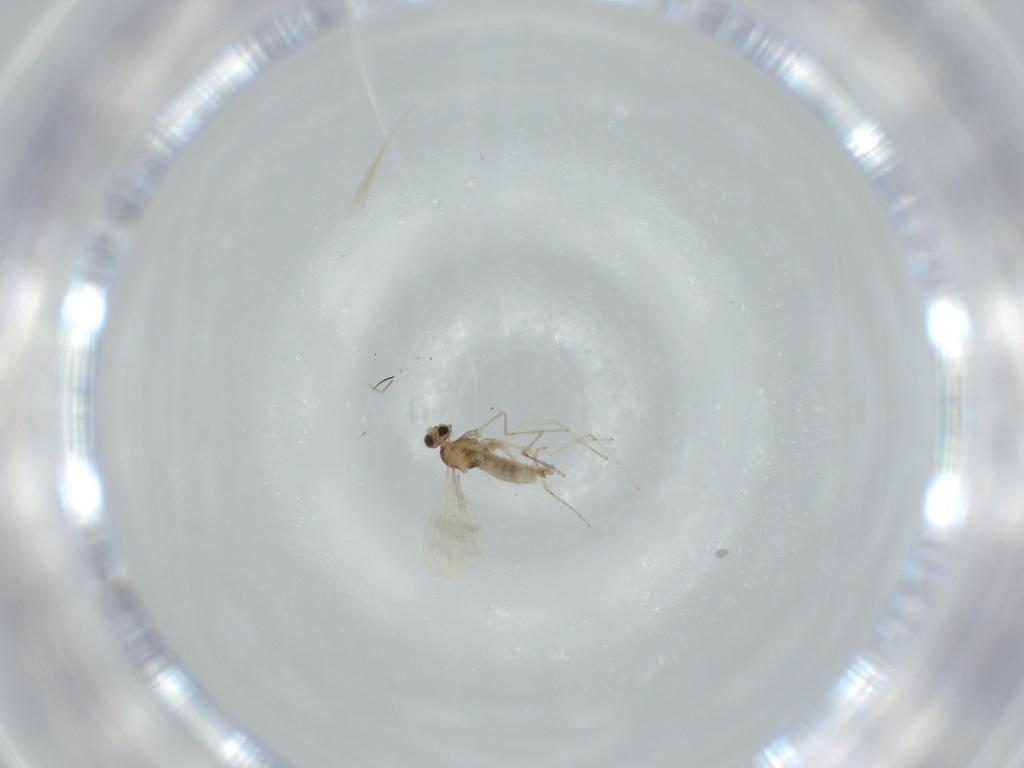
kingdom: Animalia
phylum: Arthropoda
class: Insecta
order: Diptera
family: Cecidomyiidae
